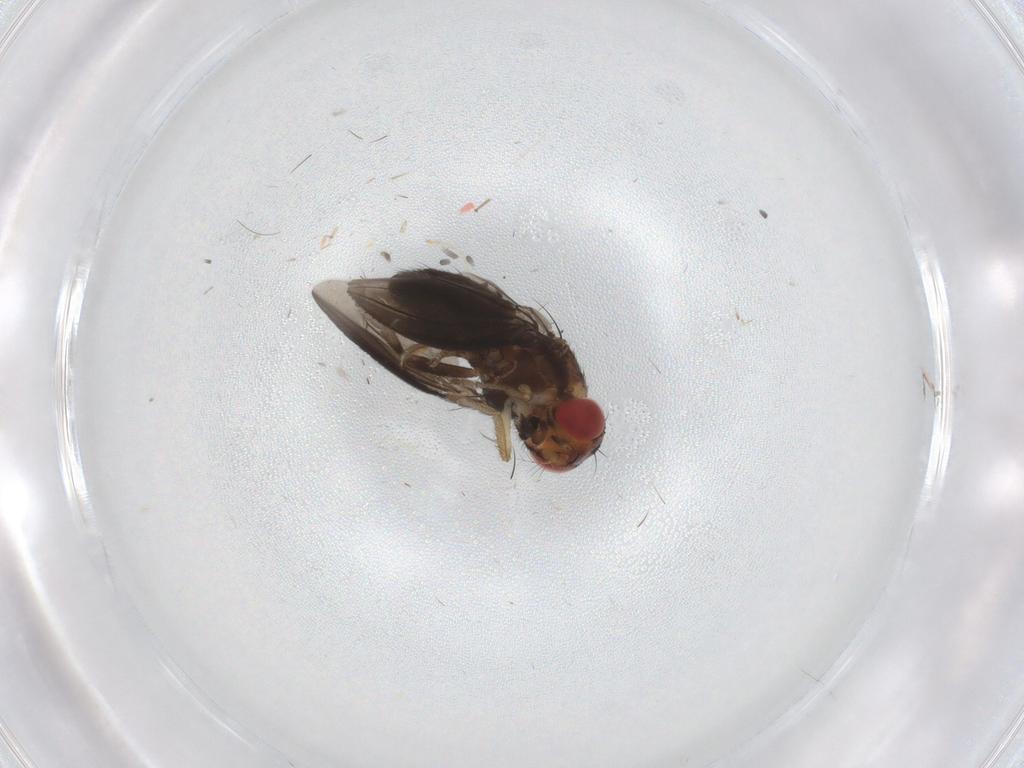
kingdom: Animalia
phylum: Arthropoda
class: Insecta
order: Diptera
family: Drosophilidae
